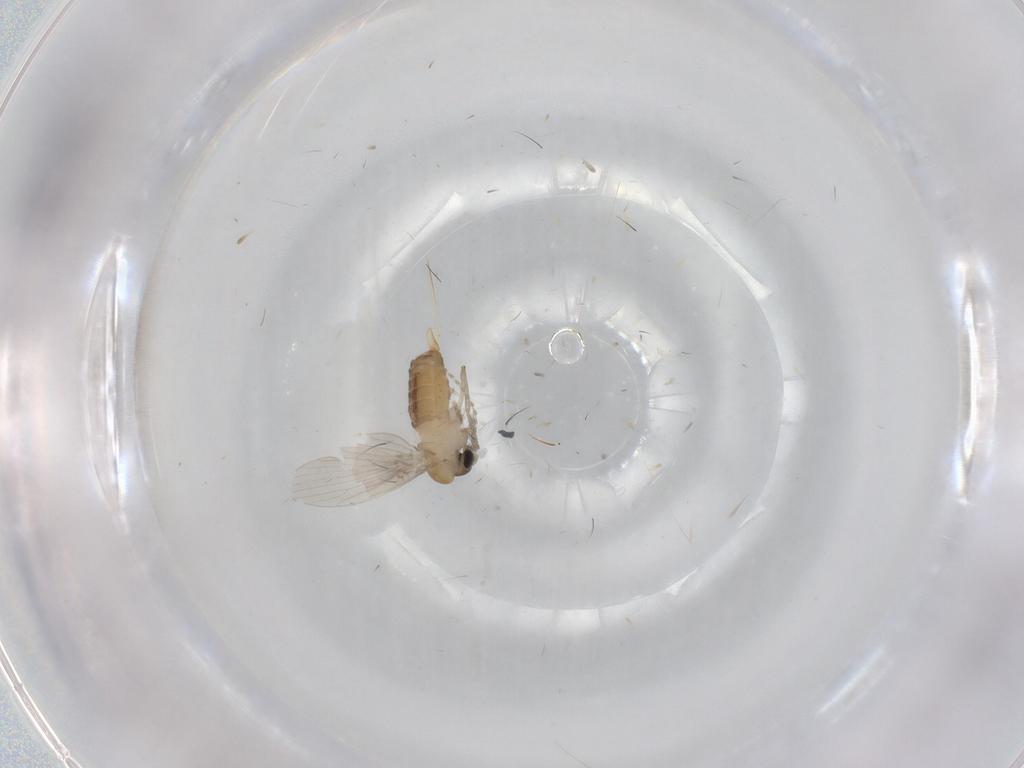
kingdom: Animalia
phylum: Arthropoda
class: Insecta
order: Diptera
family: Psychodidae
